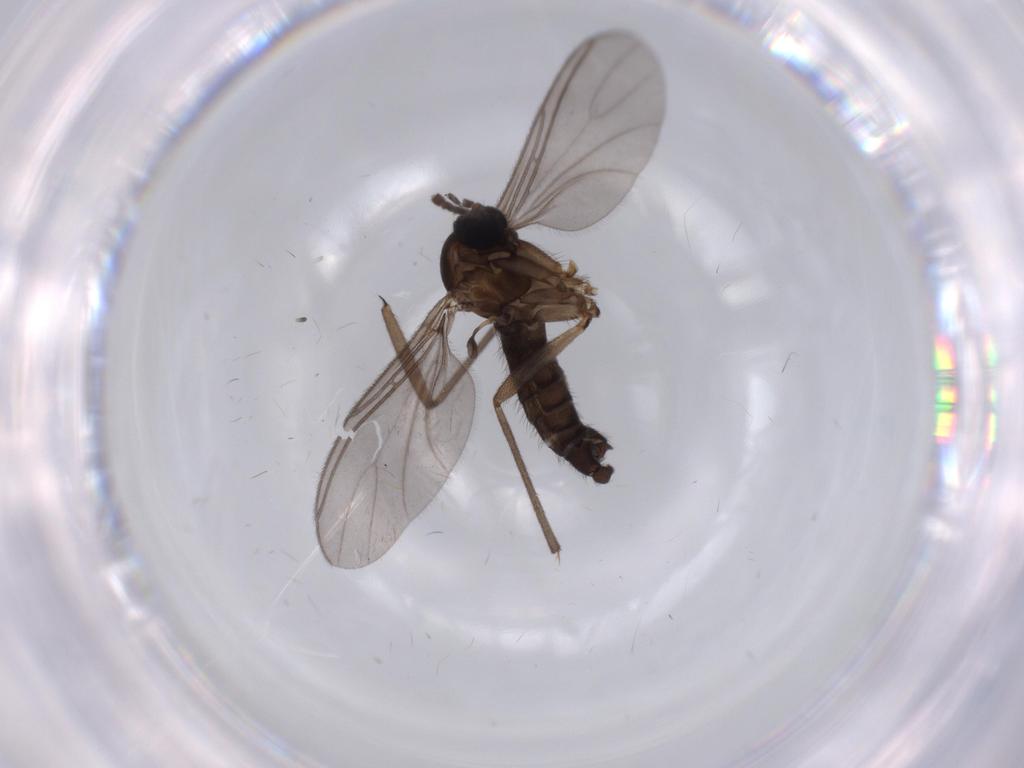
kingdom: Animalia
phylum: Arthropoda
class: Insecta
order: Diptera
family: Sciaridae
